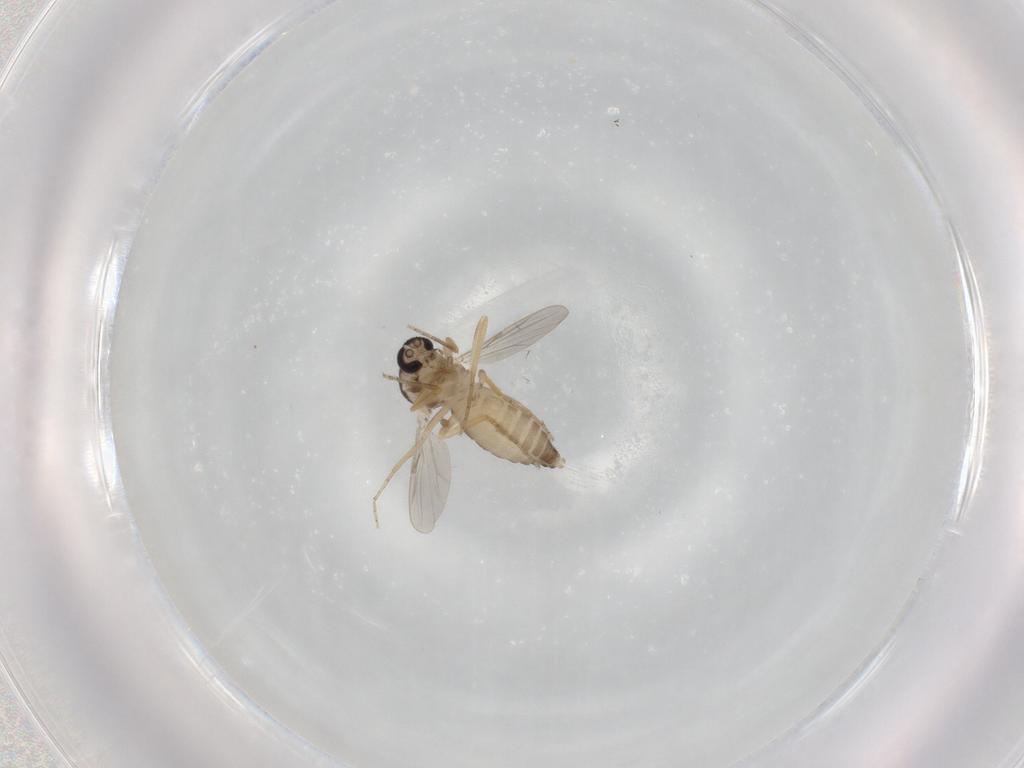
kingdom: Animalia
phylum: Arthropoda
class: Insecta
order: Diptera
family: Ceratopogonidae
